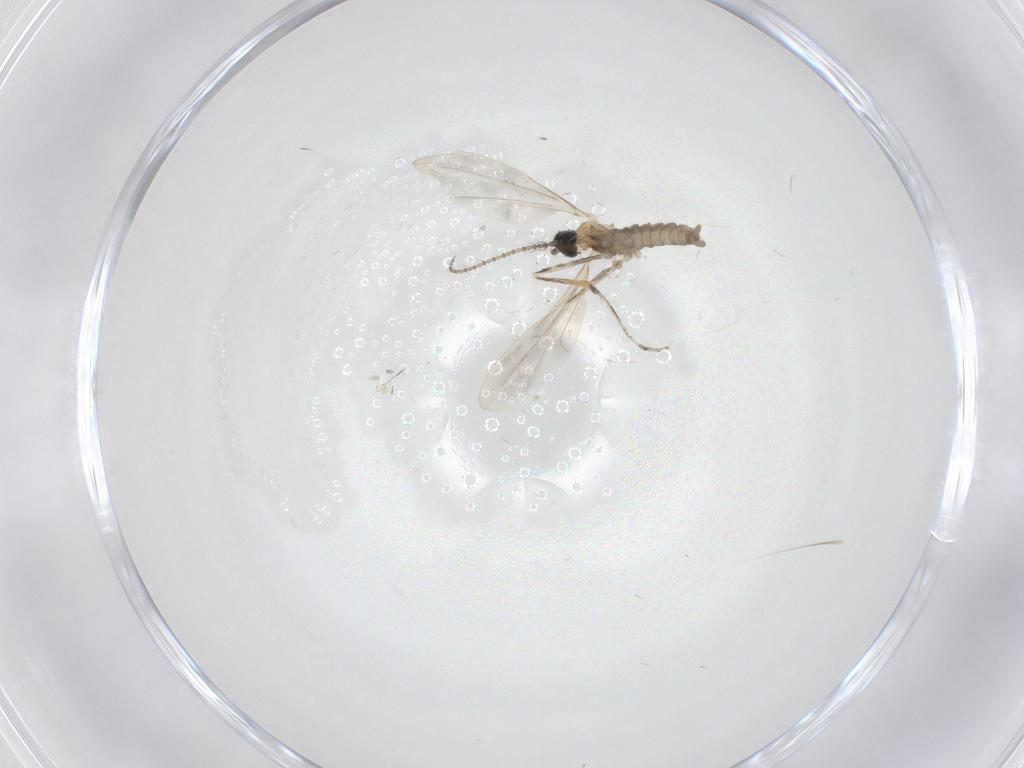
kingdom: Animalia
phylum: Arthropoda
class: Insecta
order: Diptera
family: Cecidomyiidae
